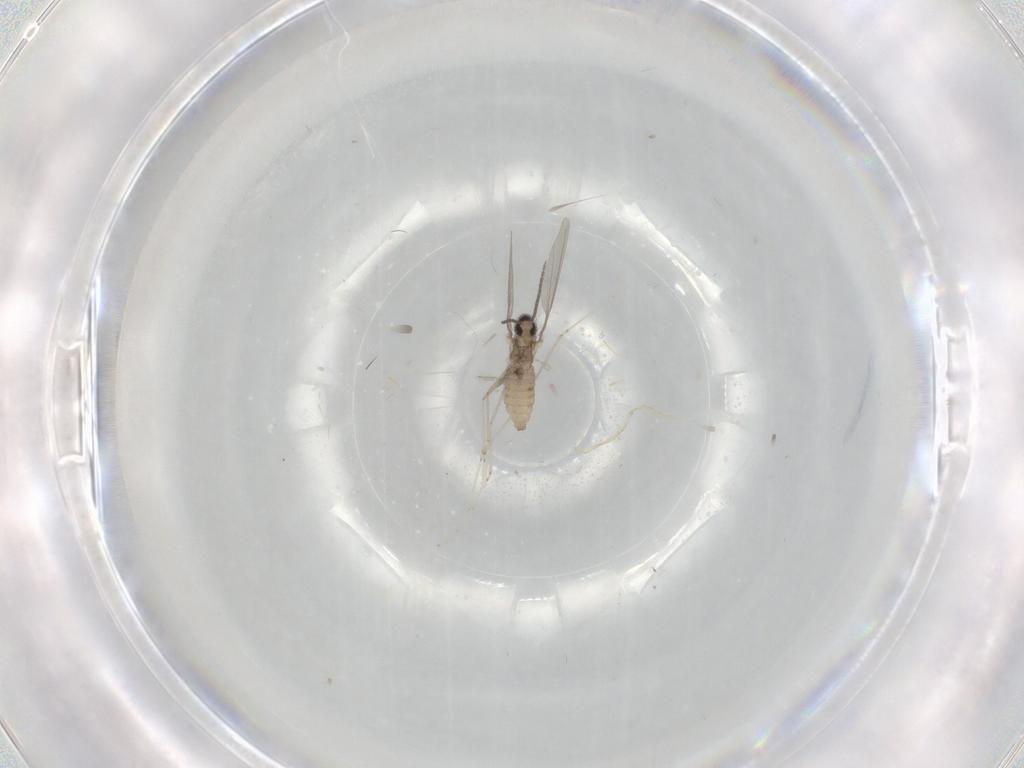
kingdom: Animalia
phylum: Arthropoda
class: Insecta
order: Diptera
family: Cecidomyiidae
